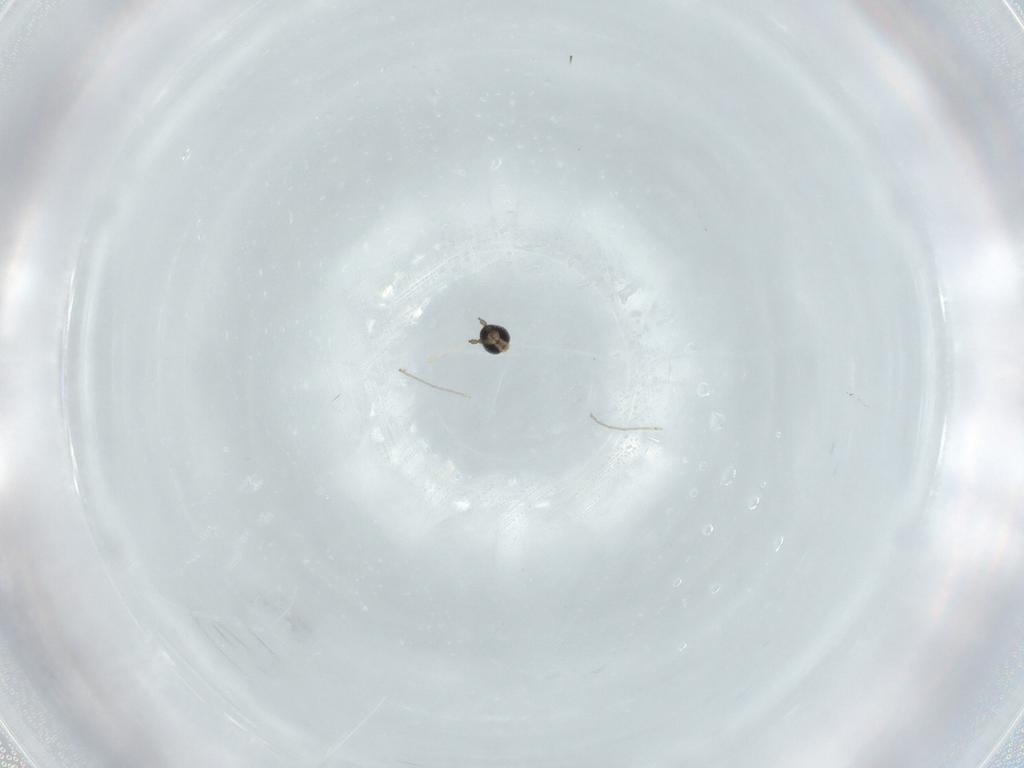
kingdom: Animalia
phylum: Arthropoda
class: Insecta
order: Diptera
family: Cecidomyiidae
